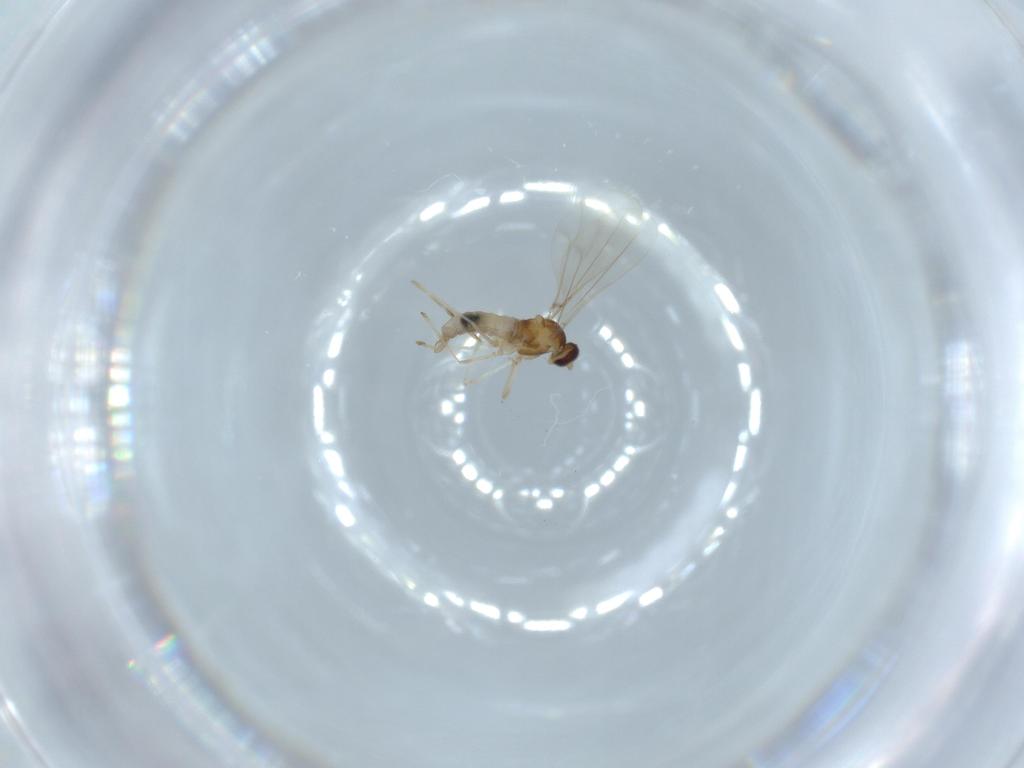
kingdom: Animalia
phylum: Arthropoda
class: Insecta
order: Diptera
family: Cecidomyiidae
